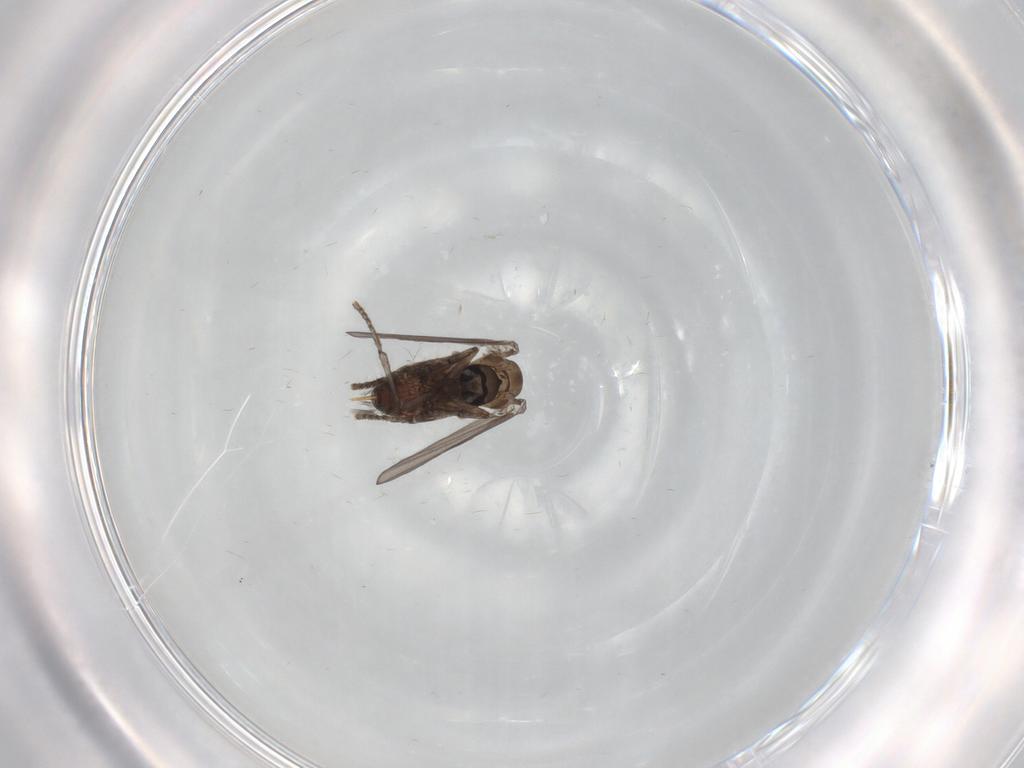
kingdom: Animalia
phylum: Arthropoda
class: Insecta
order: Diptera
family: Psychodidae
